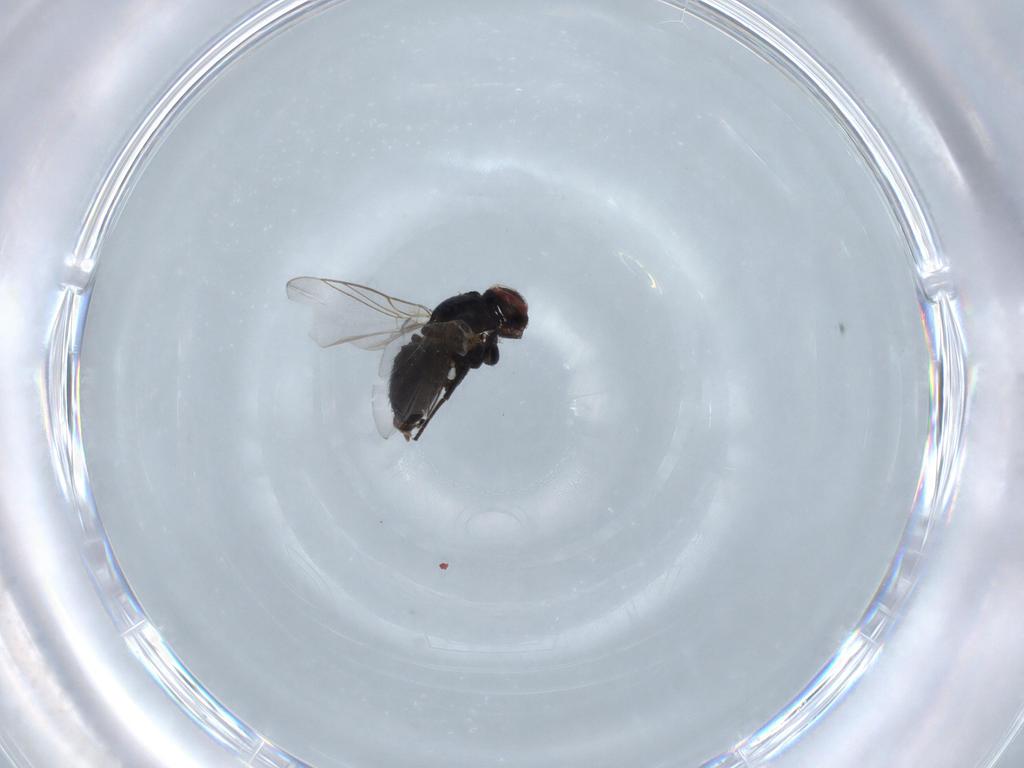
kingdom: Animalia
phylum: Arthropoda
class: Insecta
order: Diptera
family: Agromyzidae
